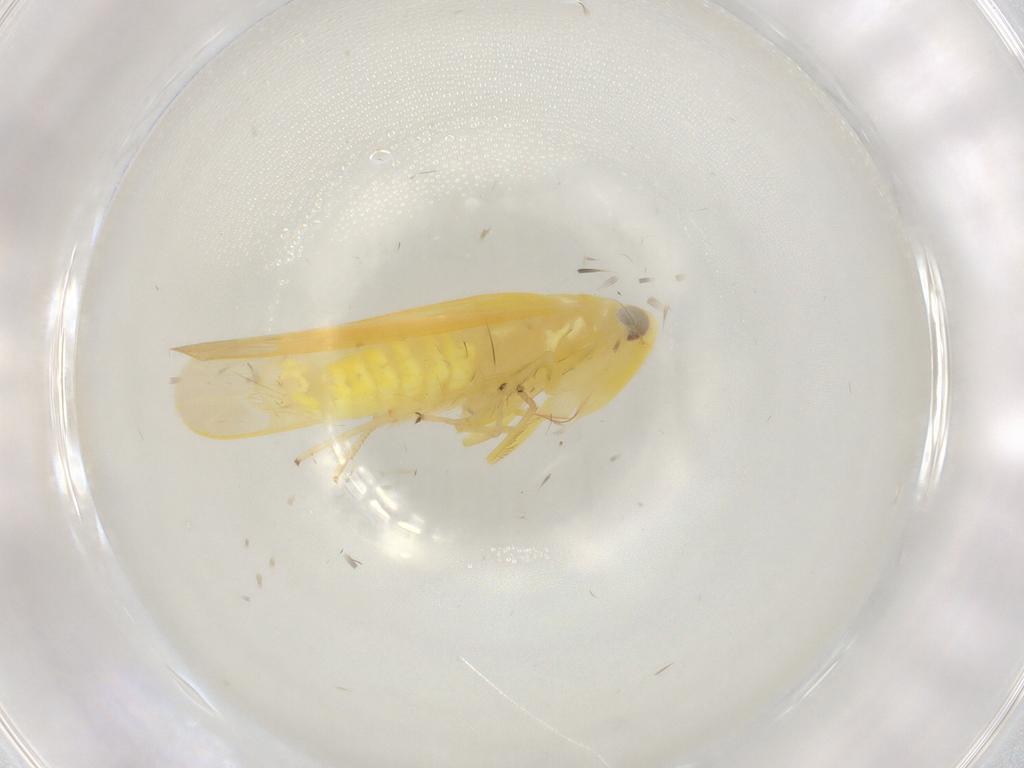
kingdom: Animalia
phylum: Arthropoda
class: Insecta
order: Hemiptera
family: Cicadellidae
